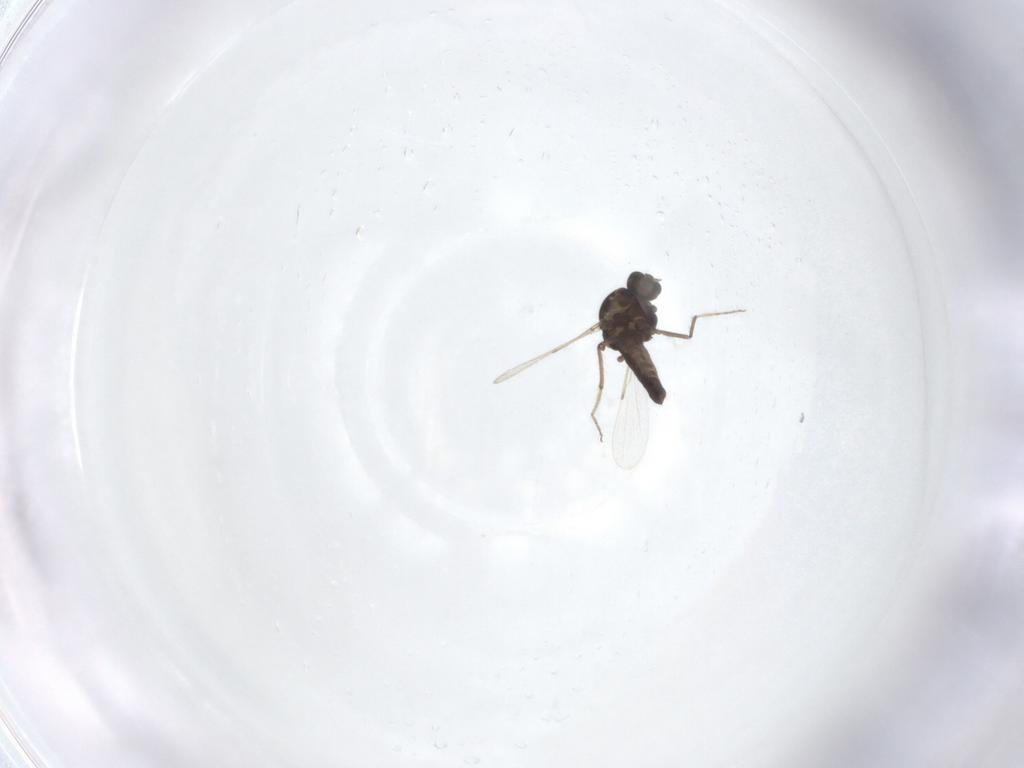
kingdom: Animalia
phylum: Arthropoda
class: Insecta
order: Diptera
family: Ceratopogonidae
